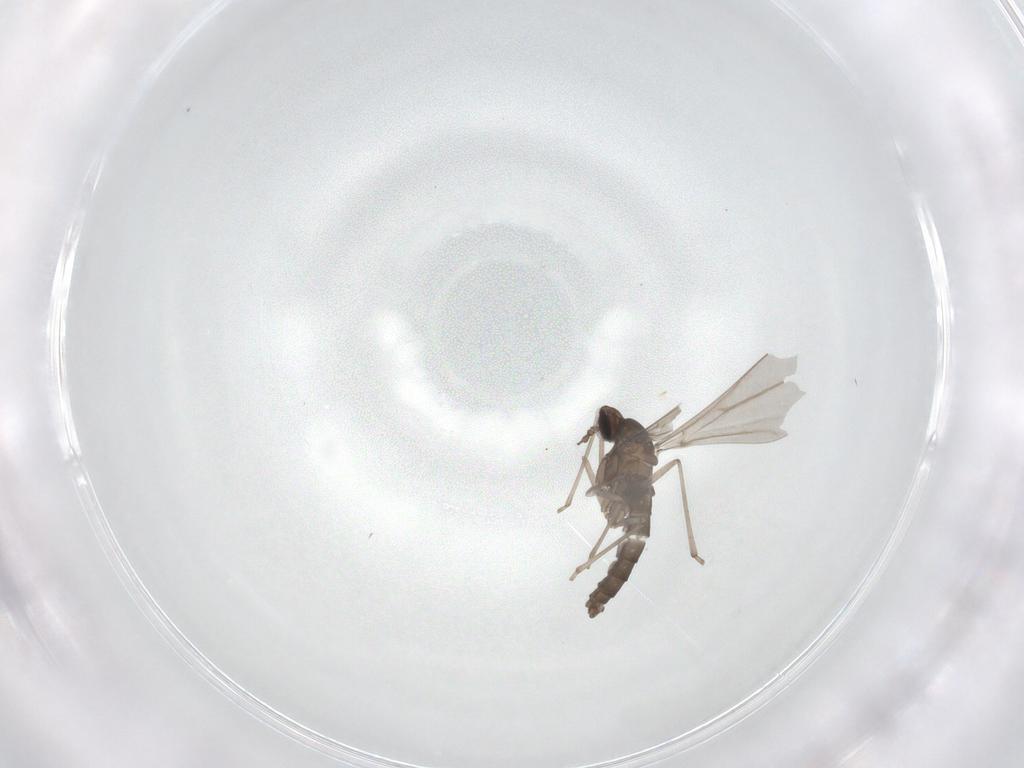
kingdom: Animalia
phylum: Arthropoda
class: Insecta
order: Diptera
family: Cecidomyiidae
